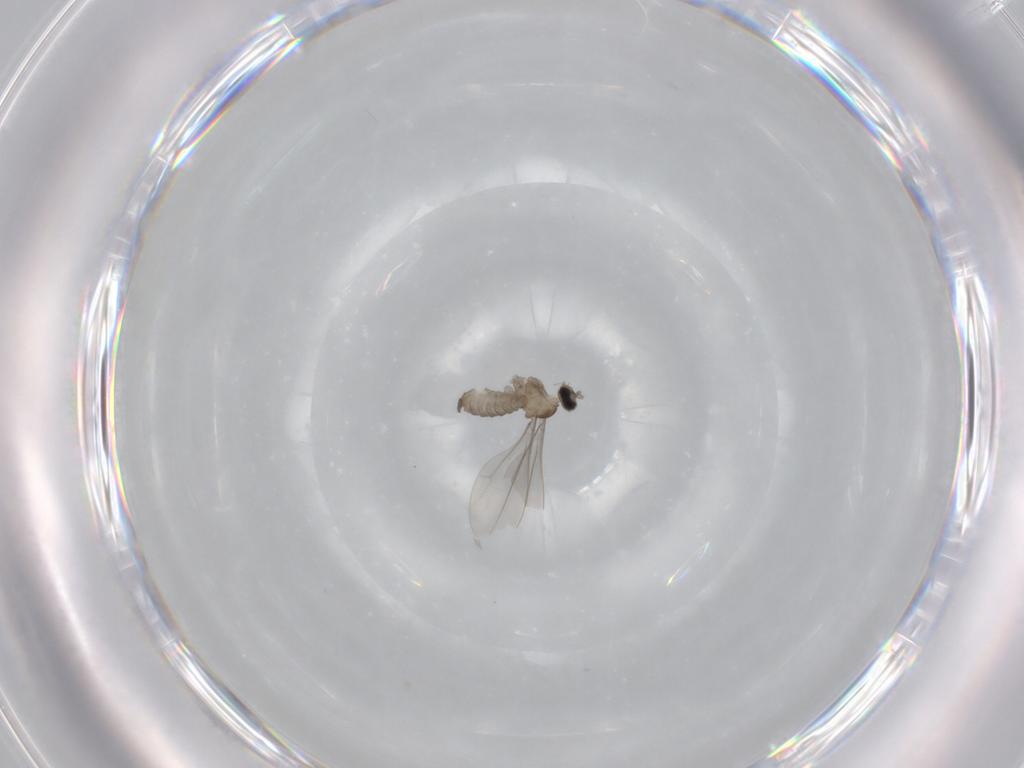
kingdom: Animalia
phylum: Arthropoda
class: Insecta
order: Diptera
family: Cecidomyiidae
